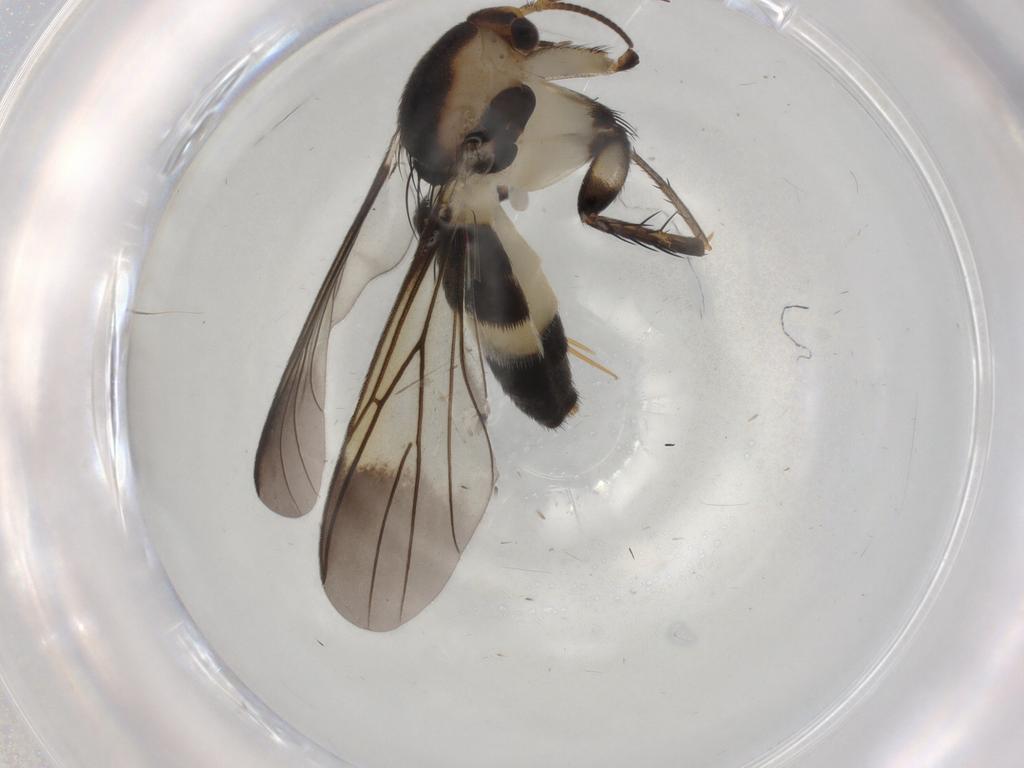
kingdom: Animalia
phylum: Arthropoda
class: Insecta
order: Diptera
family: Mycetophilidae
